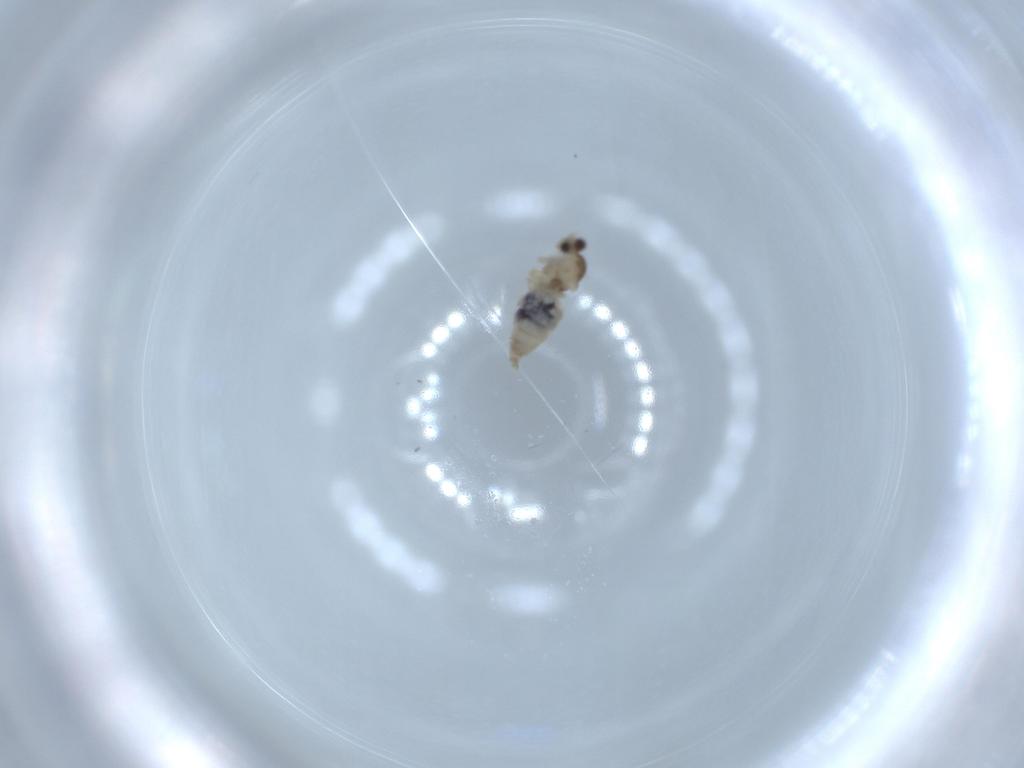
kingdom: Animalia
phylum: Arthropoda
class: Insecta
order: Diptera
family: Cecidomyiidae
